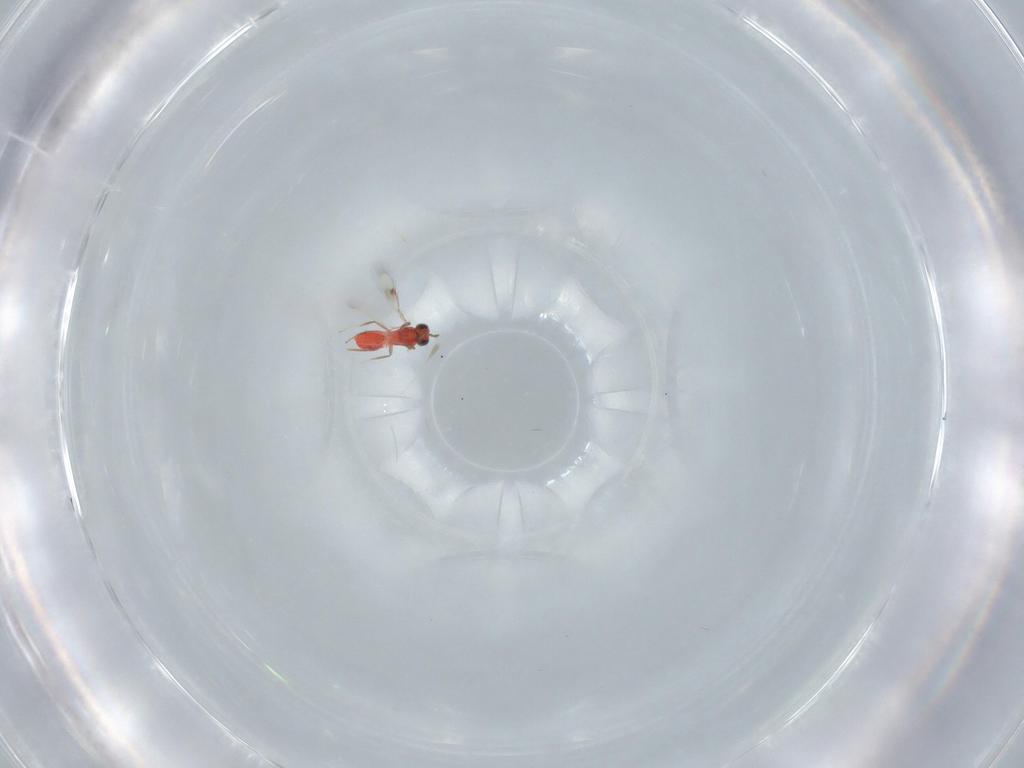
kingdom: Animalia
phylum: Arthropoda
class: Insecta
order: Hymenoptera
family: Trichogrammatidae
